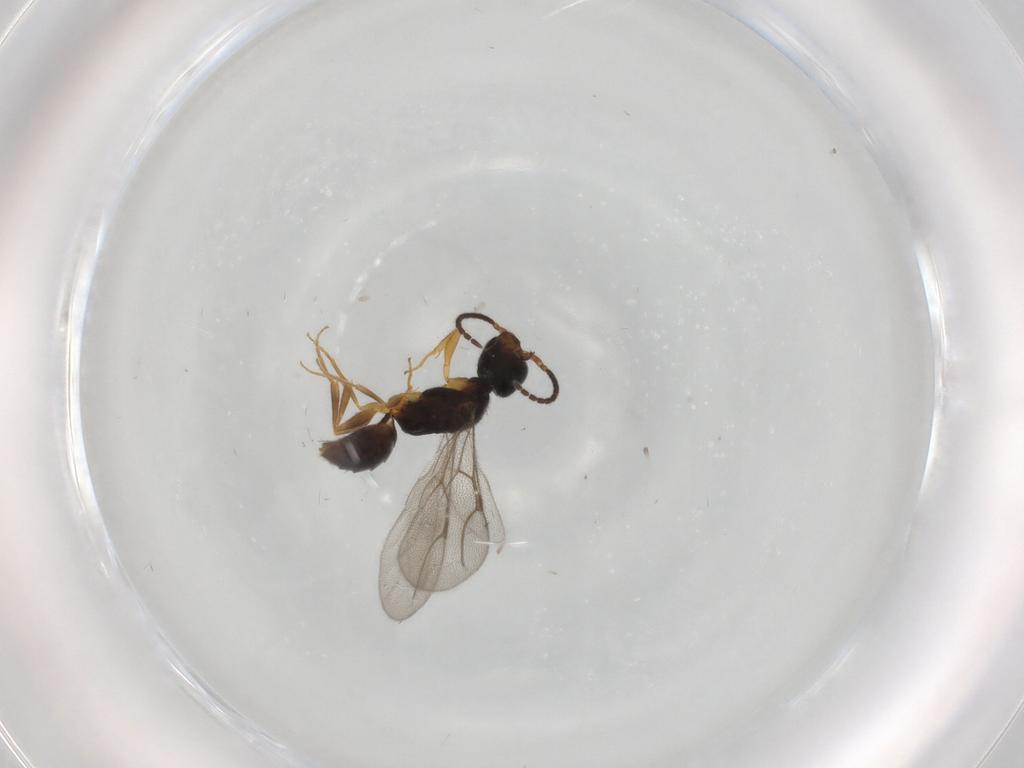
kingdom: Animalia
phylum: Arthropoda
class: Insecta
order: Hymenoptera
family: Bethylidae
